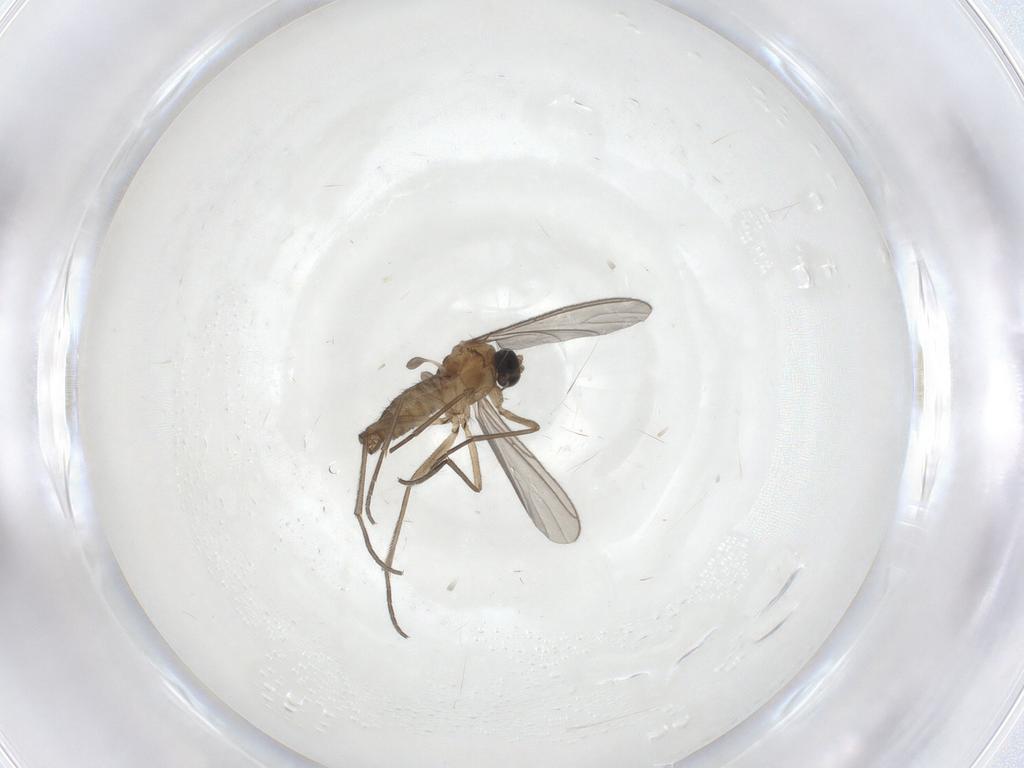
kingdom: Animalia
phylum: Arthropoda
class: Insecta
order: Diptera
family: Sciaridae
